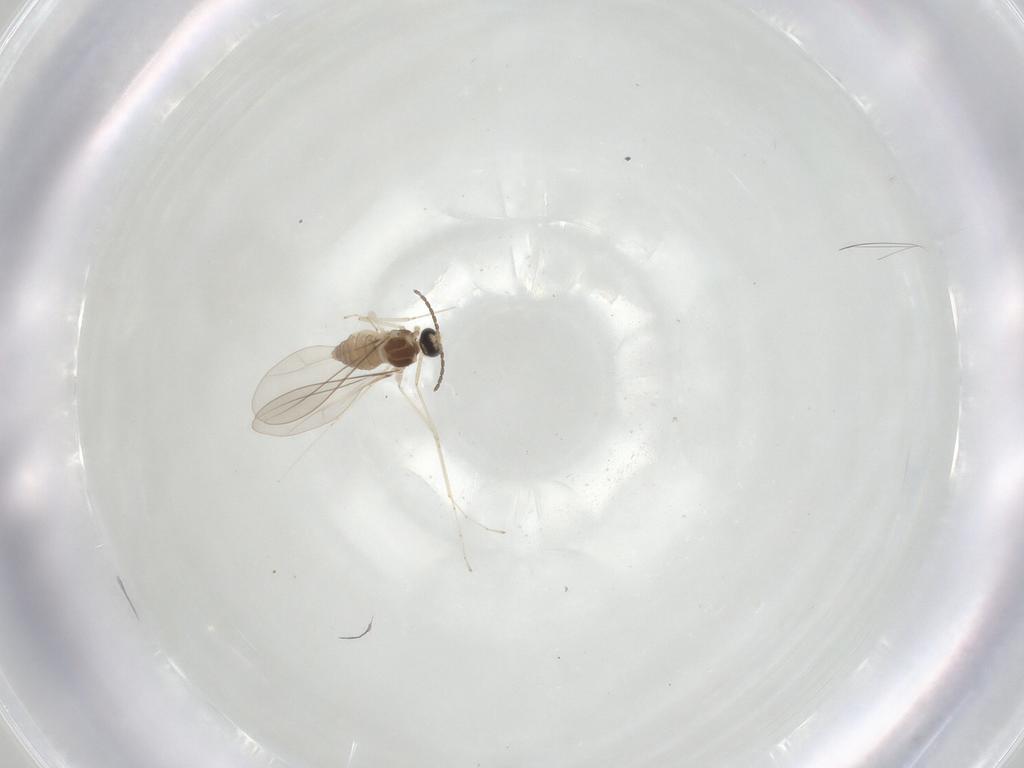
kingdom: Animalia
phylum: Arthropoda
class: Insecta
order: Diptera
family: Cecidomyiidae
